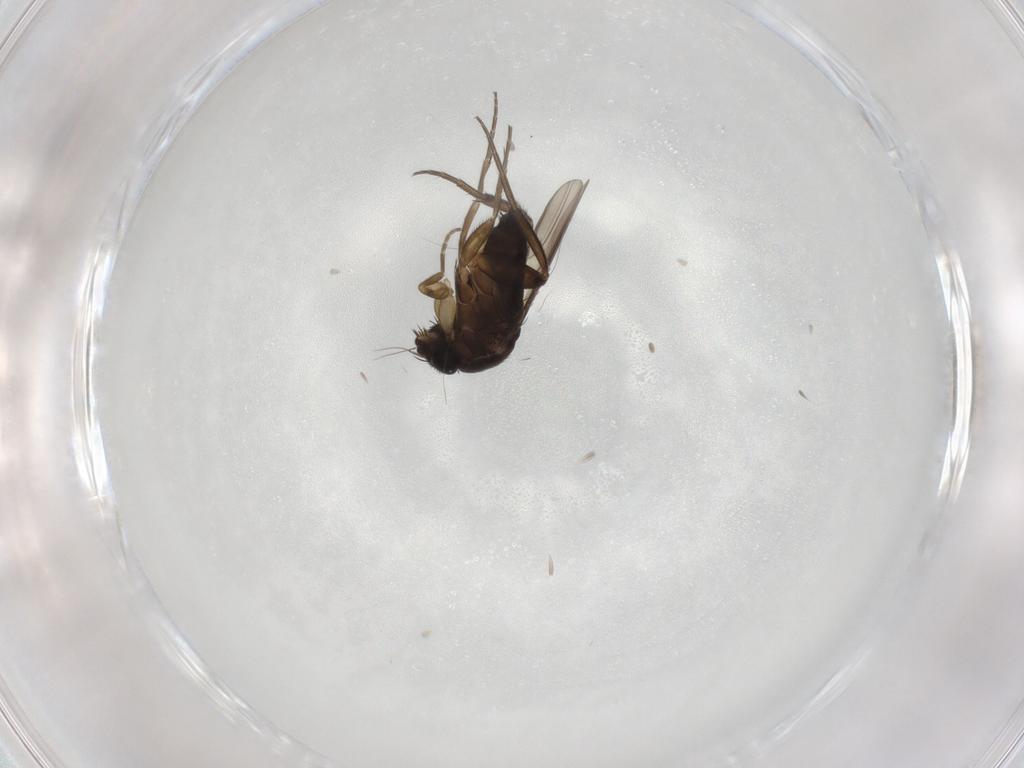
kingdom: Animalia
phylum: Arthropoda
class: Insecta
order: Diptera
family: Phoridae
